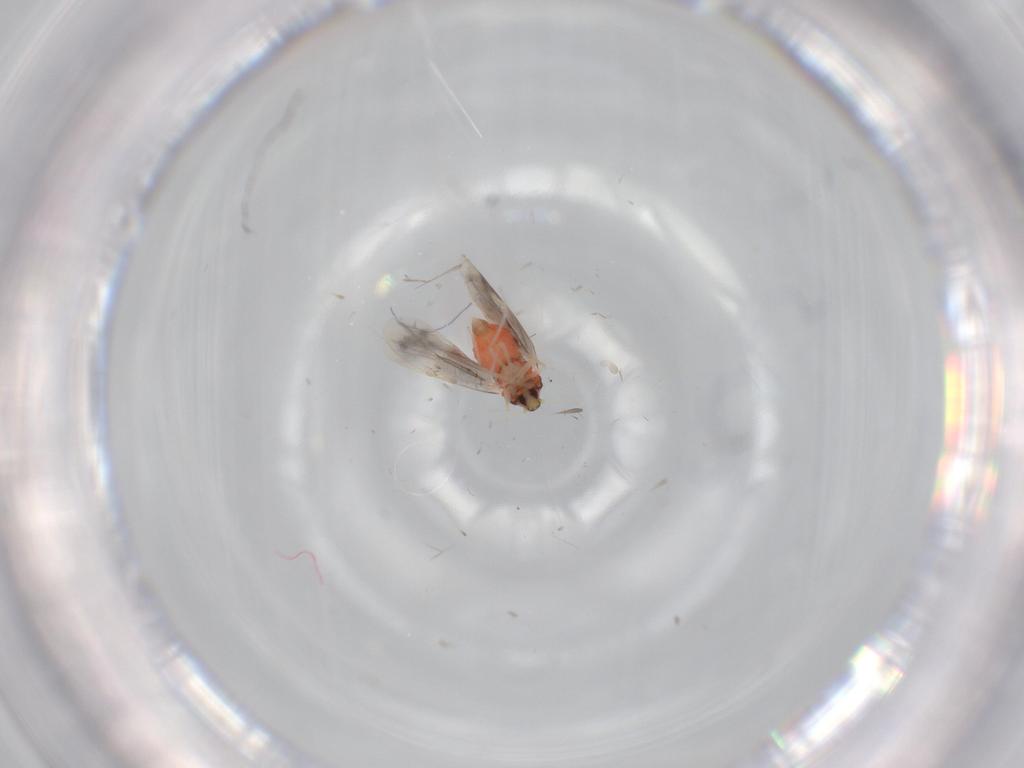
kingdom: Animalia
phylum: Arthropoda
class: Insecta
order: Hemiptera
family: Aleyrodidae
